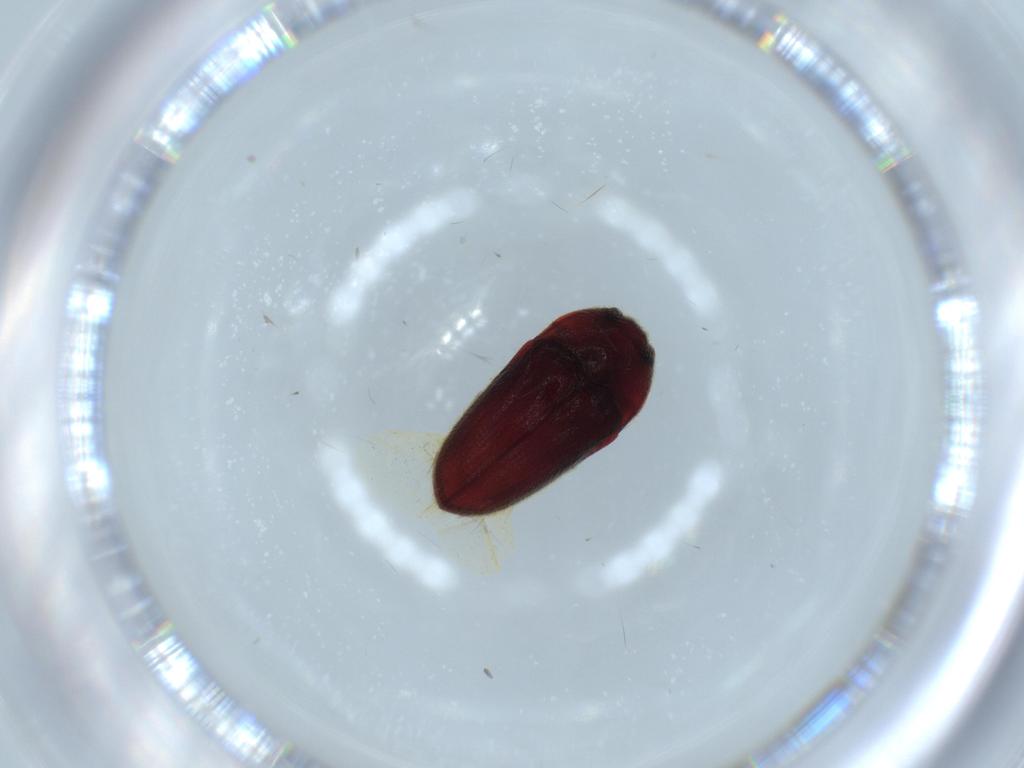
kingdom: Animalia
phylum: Arthropoda
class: Insecta
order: Coleoptera
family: Curculionidae
